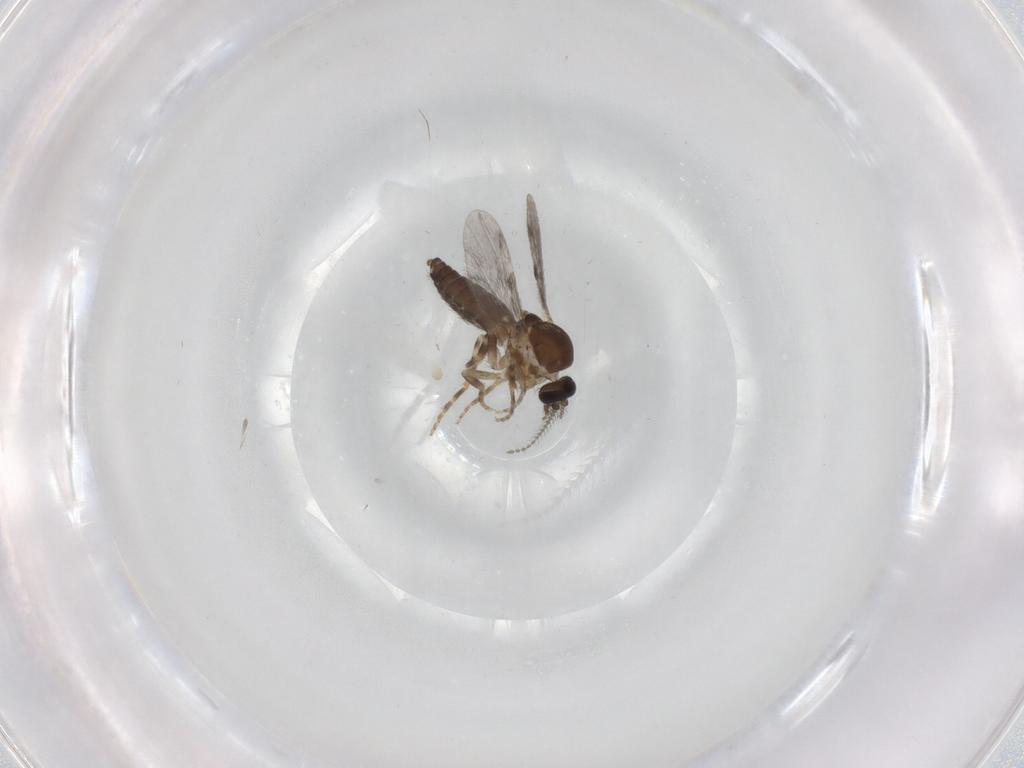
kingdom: Animalia
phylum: Arthropoda
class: Insecta
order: Diptera
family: Ceratopogonidae
